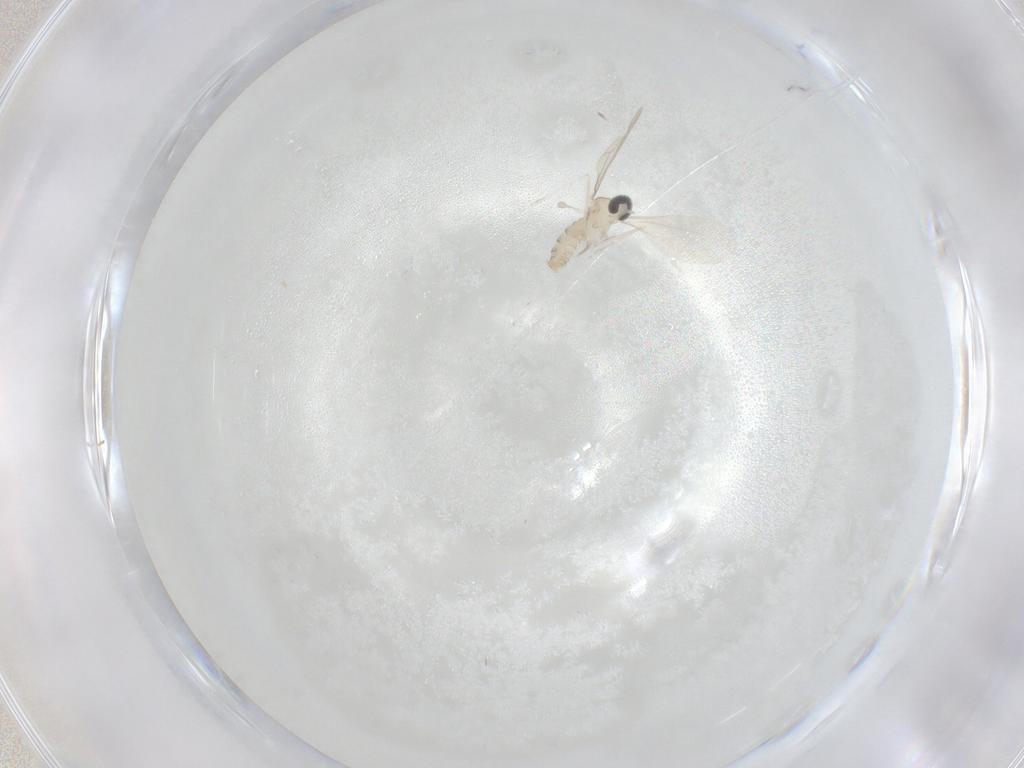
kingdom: Animalia
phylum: Arthropoda
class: Insecta
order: Diptera
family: Cecidomyiidae
